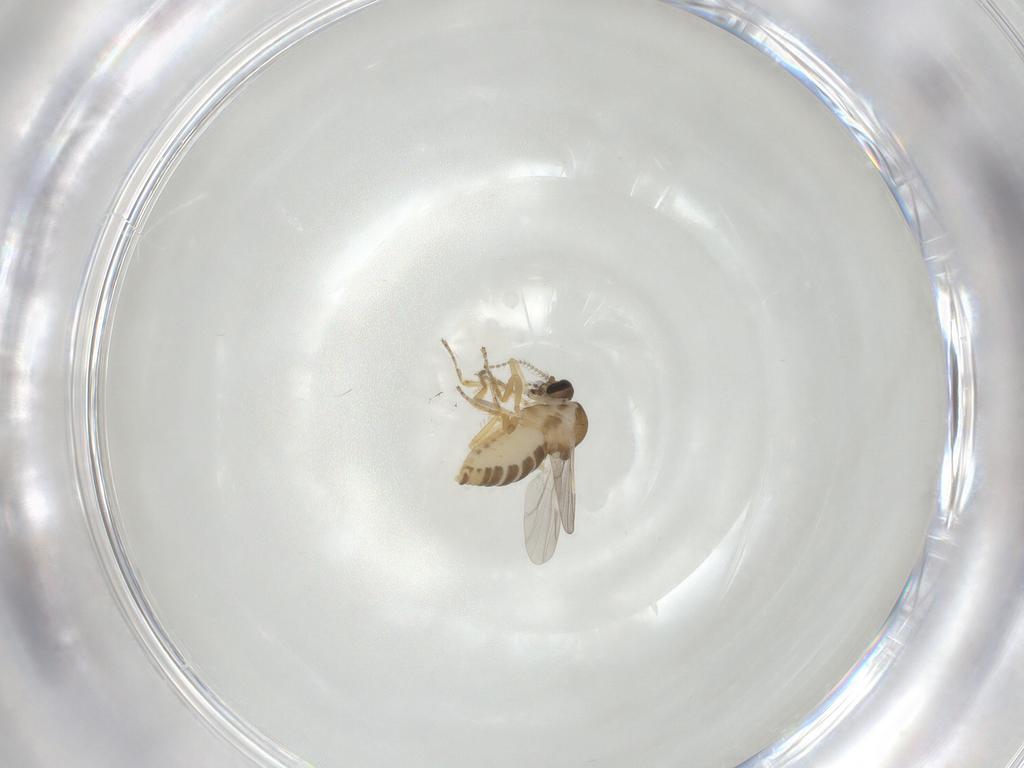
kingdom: Animalia
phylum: Arthropoda
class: Insecta
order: Diptera
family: Ceratopogonidae
